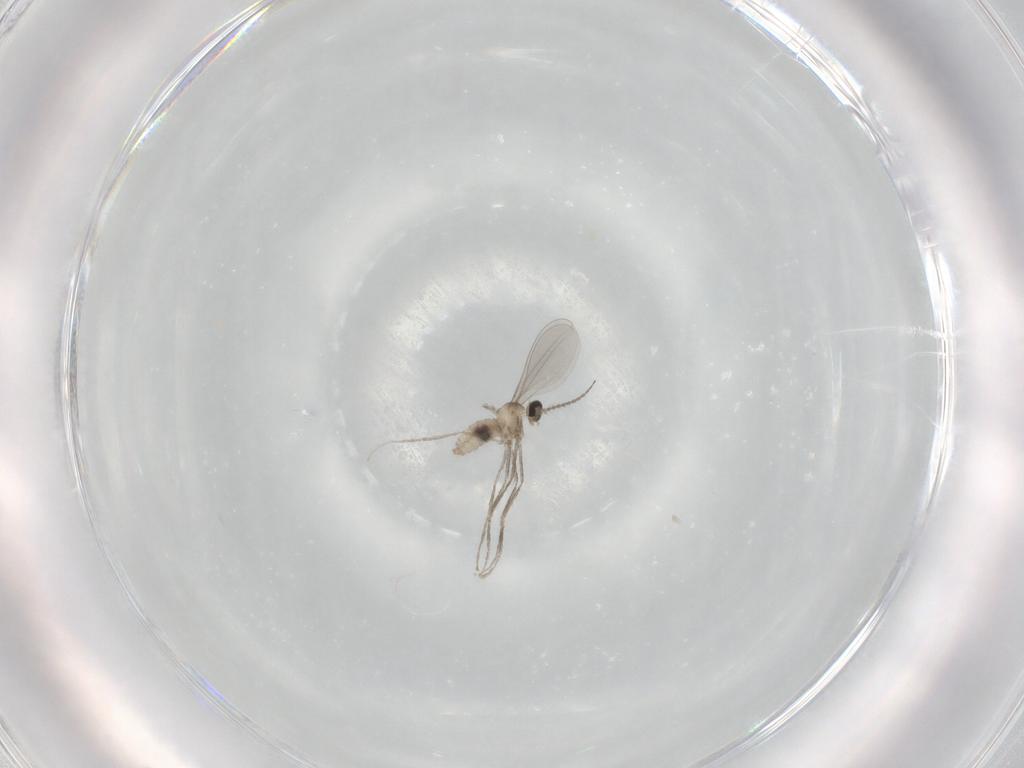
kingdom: Animalia
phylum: Arthropoda
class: Insecta
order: Diptera
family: Cecidomyiidae
